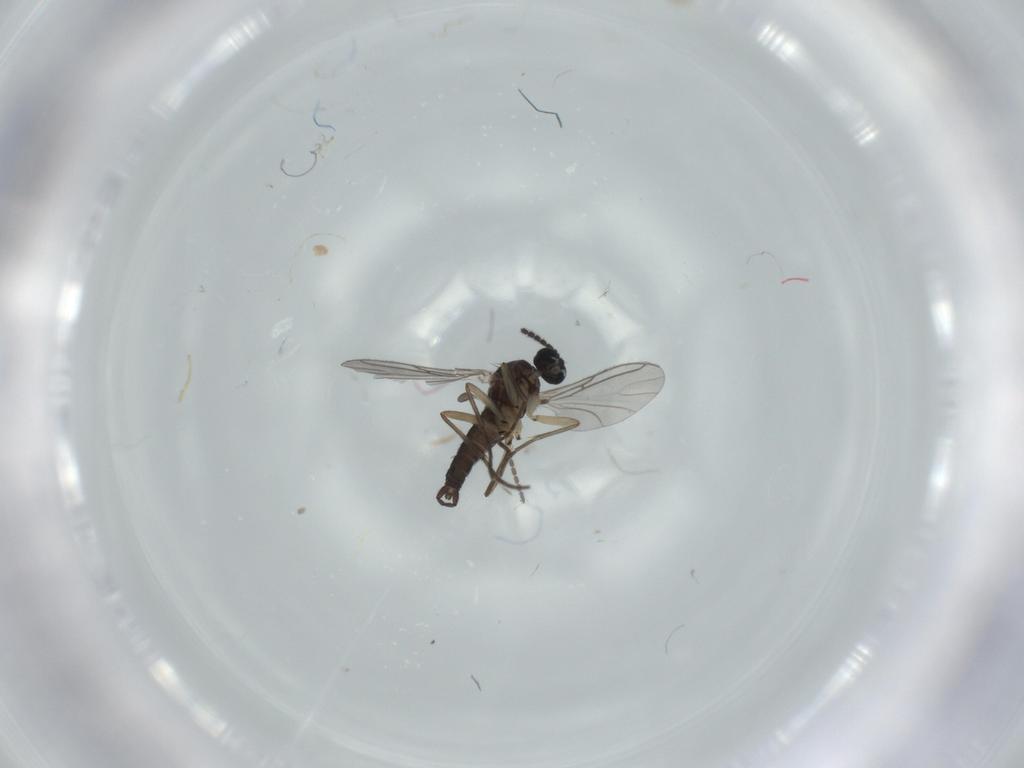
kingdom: Animalia
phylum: Arthropoda
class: Insecta
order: Diptera
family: Sciaridae
